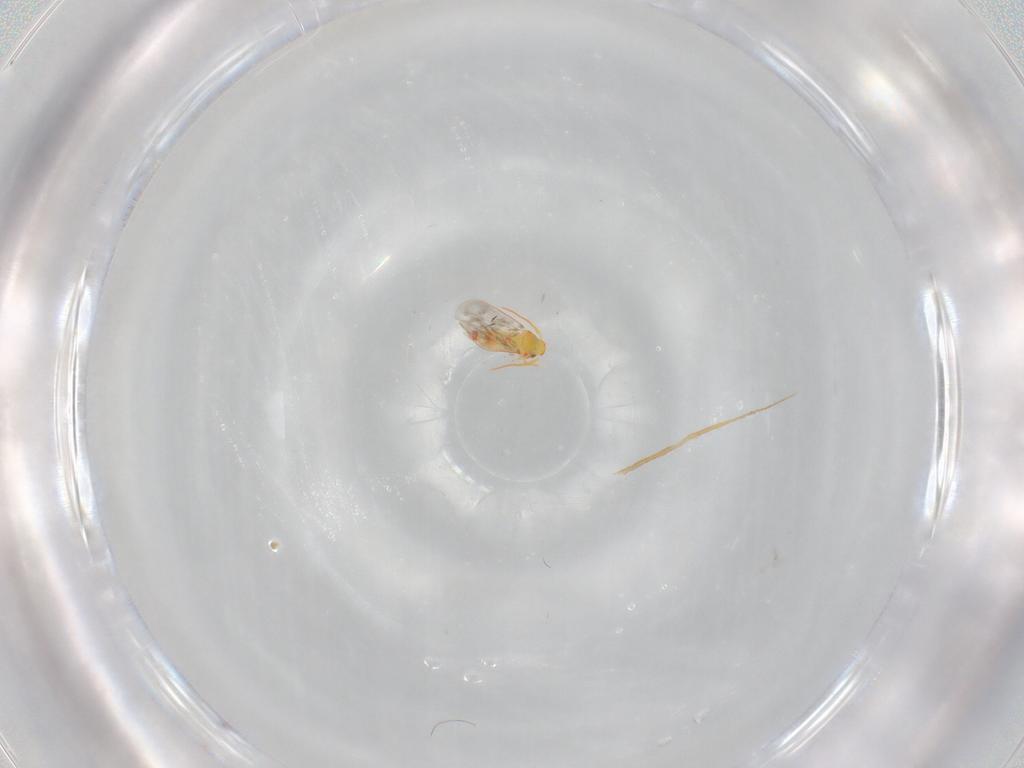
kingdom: Animalia
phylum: Arthropoda
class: Insecta
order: Hemiptera
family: Aleyrodidae
